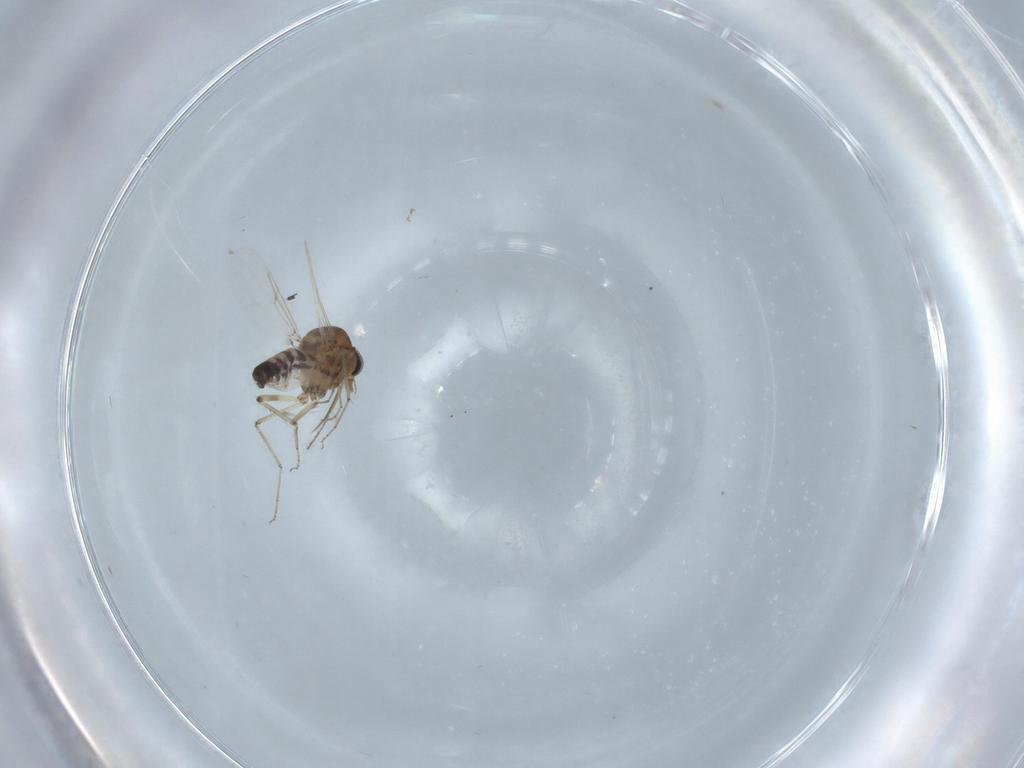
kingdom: Animalia
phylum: Arthropoda
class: Insecta
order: Diptera
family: Ceratopogonidae
